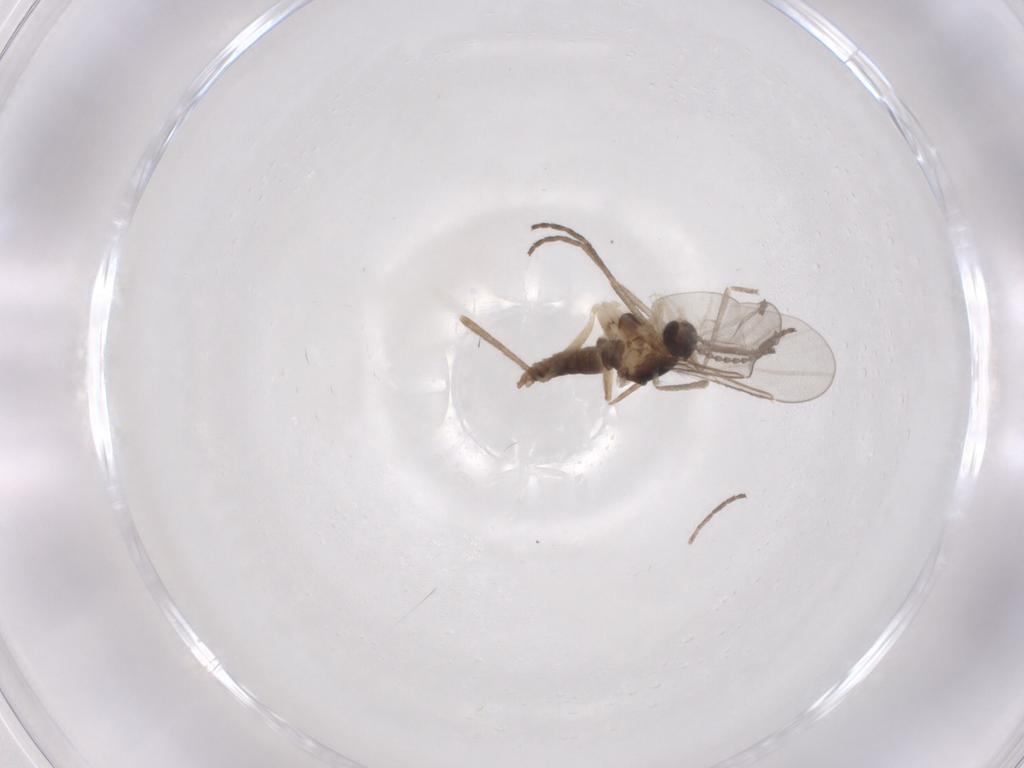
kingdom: Animalia
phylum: Arthropoda
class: Insecta
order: Diptera
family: Cecidomyiidae
